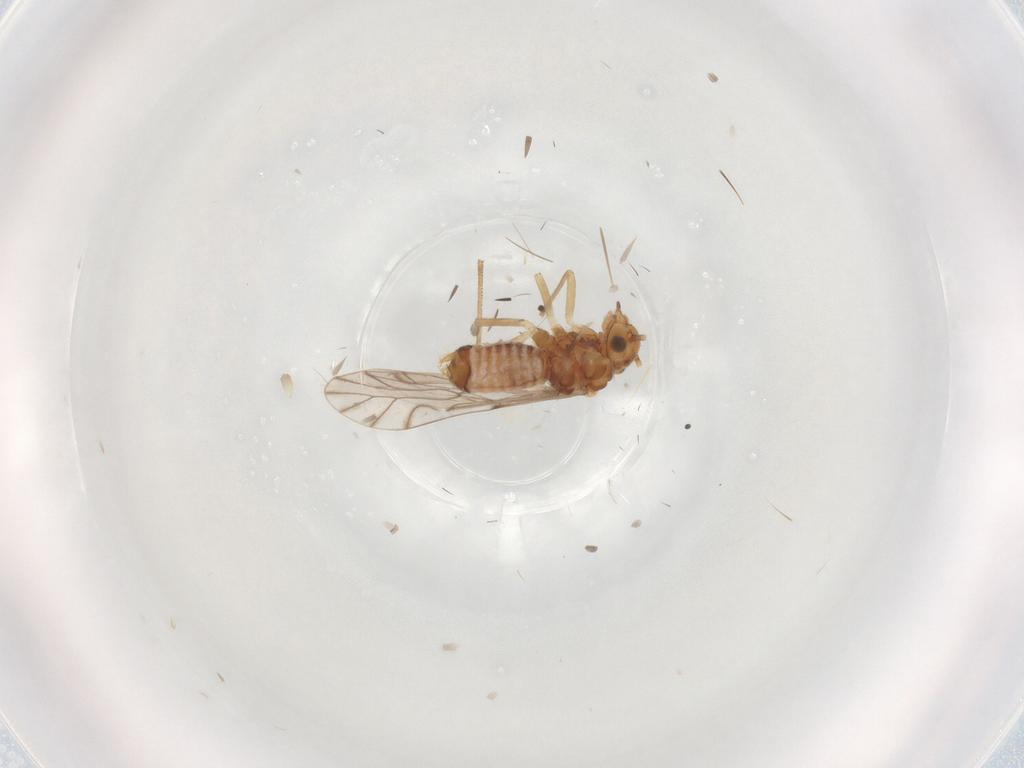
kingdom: Animalia
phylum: Arthropoda
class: Insecta
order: Psocodea
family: Lachesillidae
